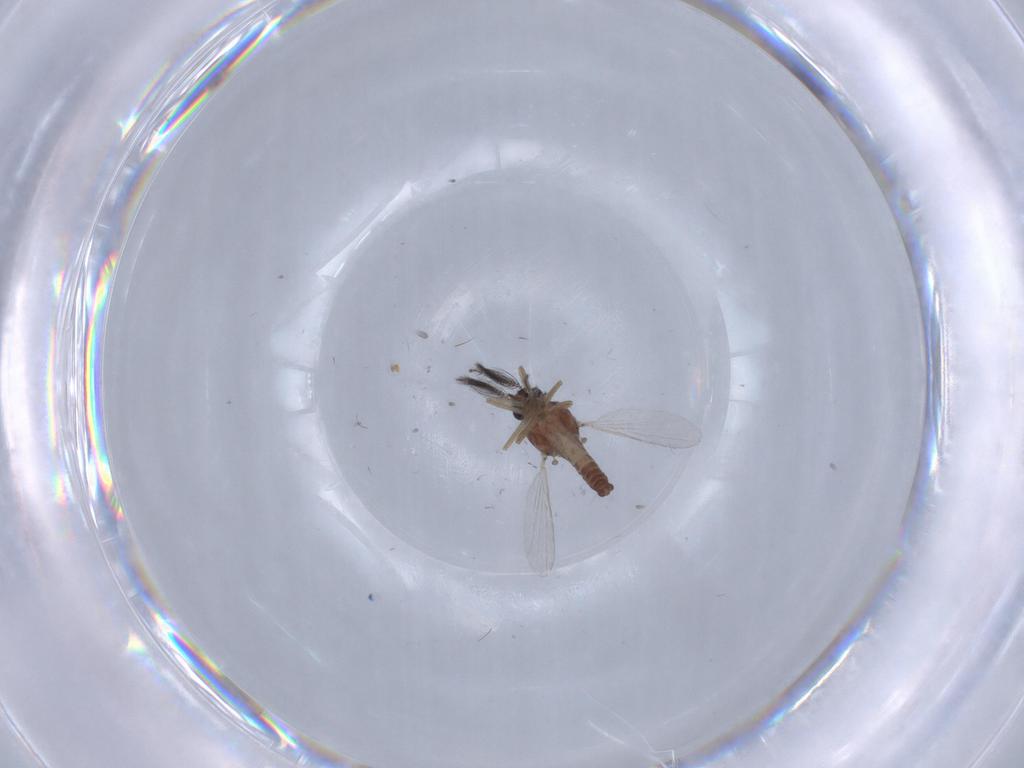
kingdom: Animalia
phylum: Arthropoda
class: Insecta
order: Diptera
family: Ceratopogonidae
